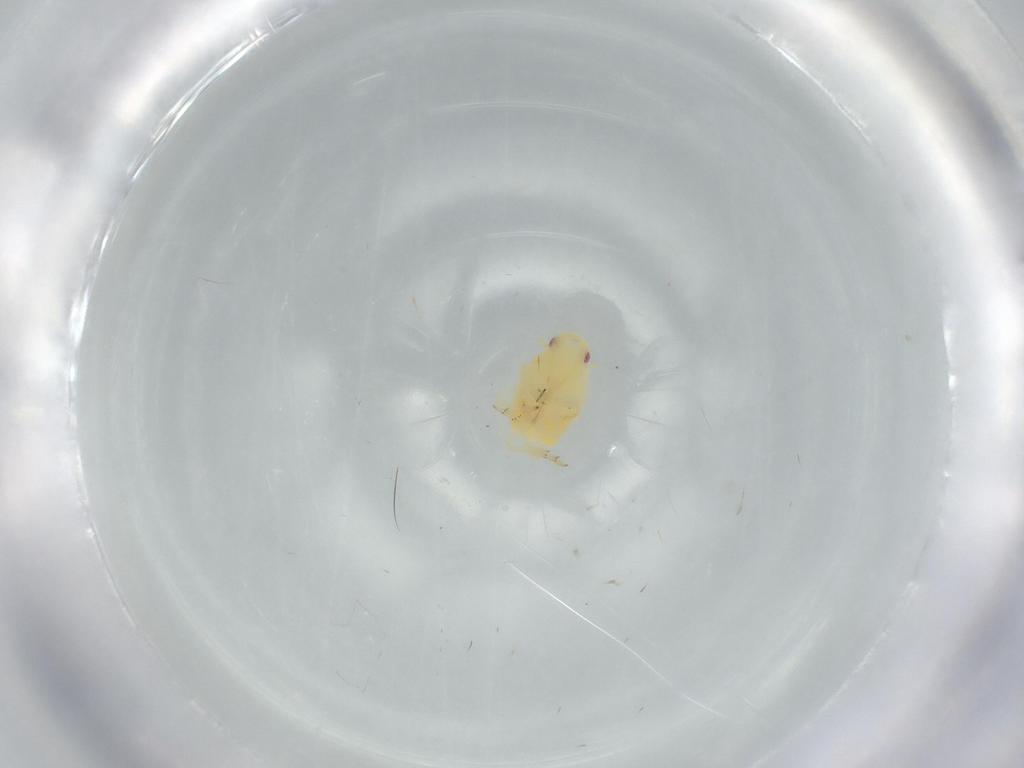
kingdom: Animalia
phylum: Arthropoda
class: Insecta
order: Hemiptera
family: Flatidae
